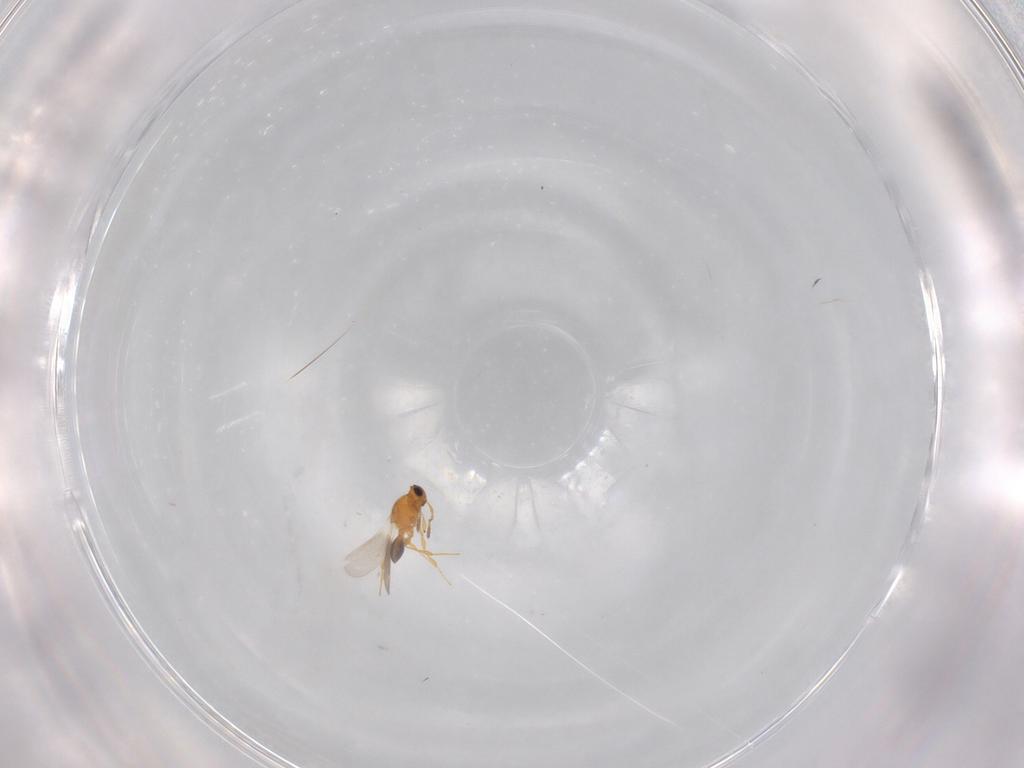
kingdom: Animalia
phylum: Arthropoda
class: Insecta
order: Hymenoptera
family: Platygastridae
